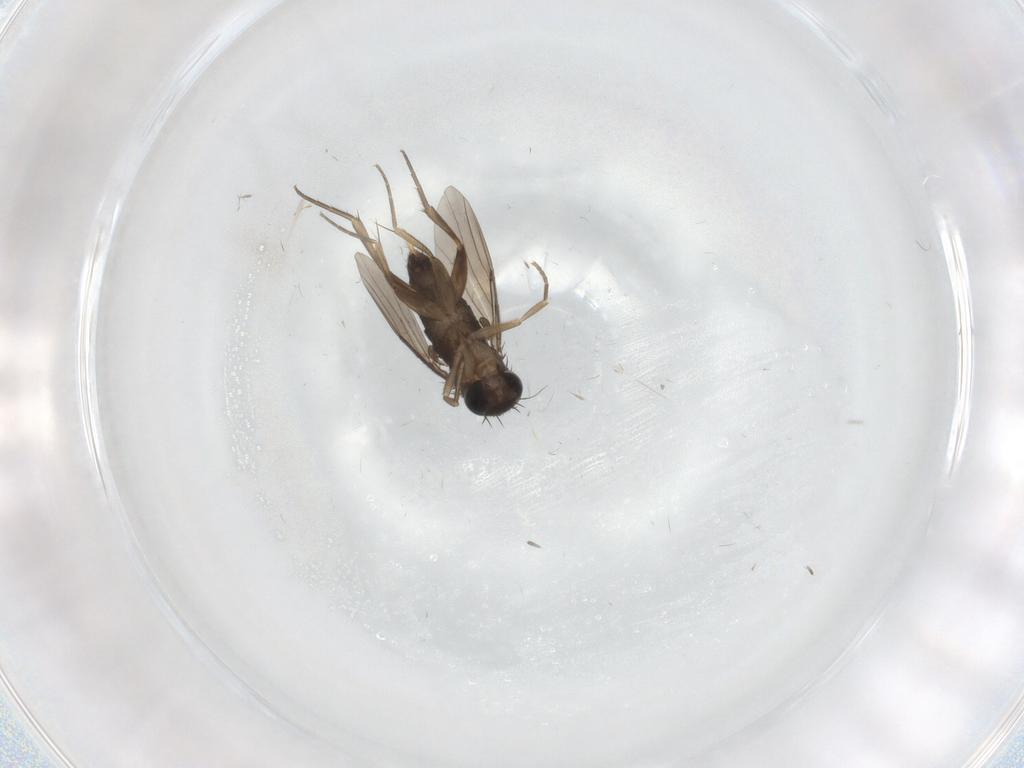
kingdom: Animalia
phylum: Arthropoda
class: Insecta
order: Diptera
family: Phoridae
